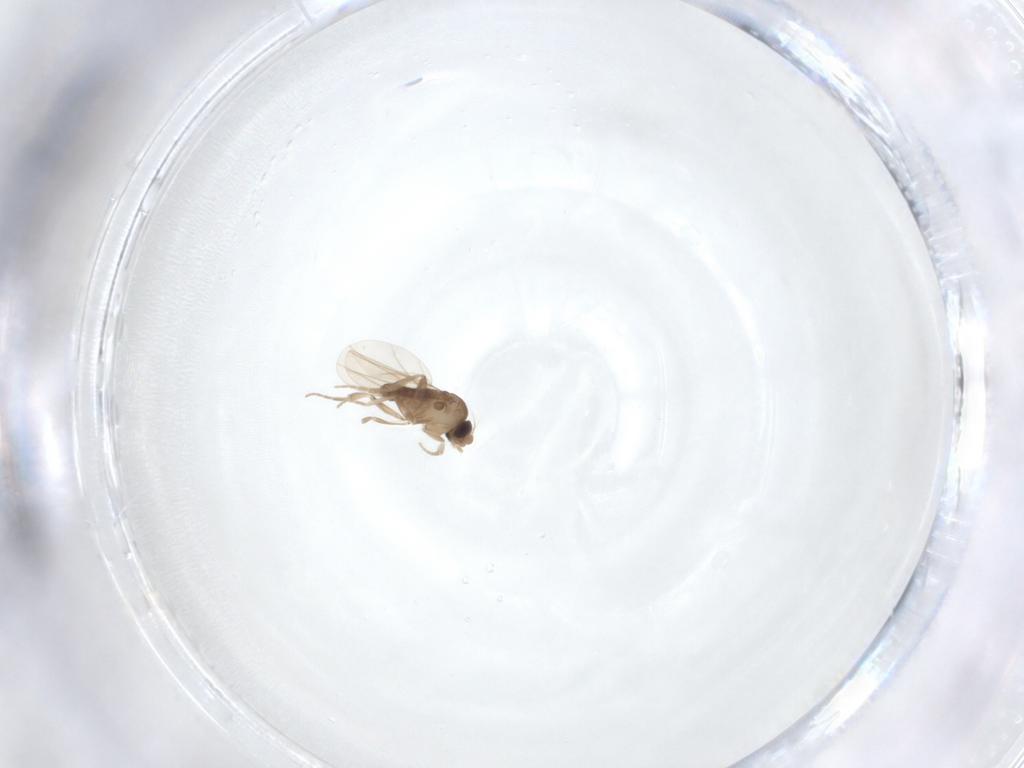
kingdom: Animalia
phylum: Arthropoda
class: Insecta
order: Diptera
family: Phoridae
